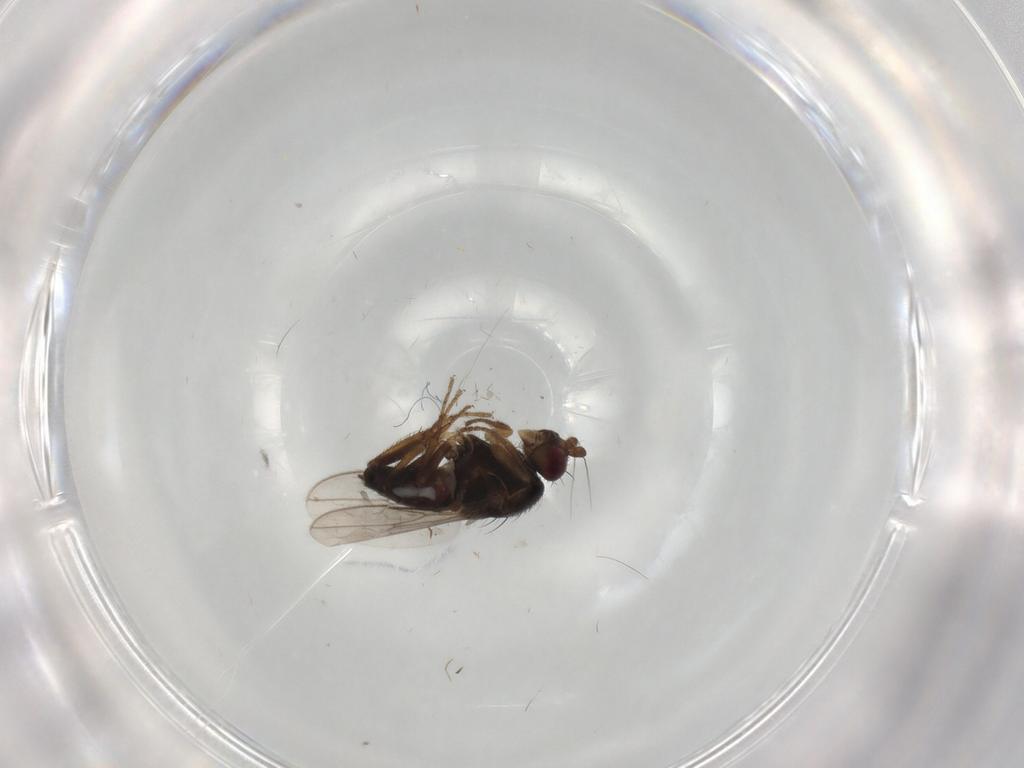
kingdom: Animalia
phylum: Arthropoda
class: Insecta
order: Diptera
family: Sphaeroceridae
